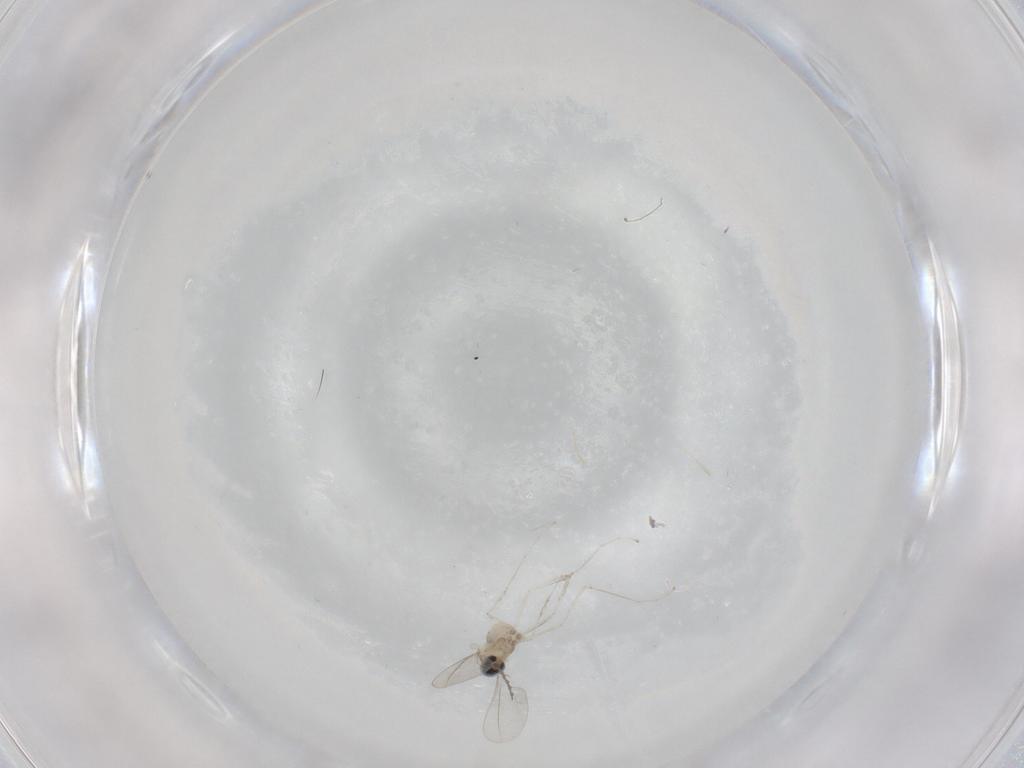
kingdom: Animalia
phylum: Arthropoda
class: Insecta
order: Diptera
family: Cecidomyiidae
